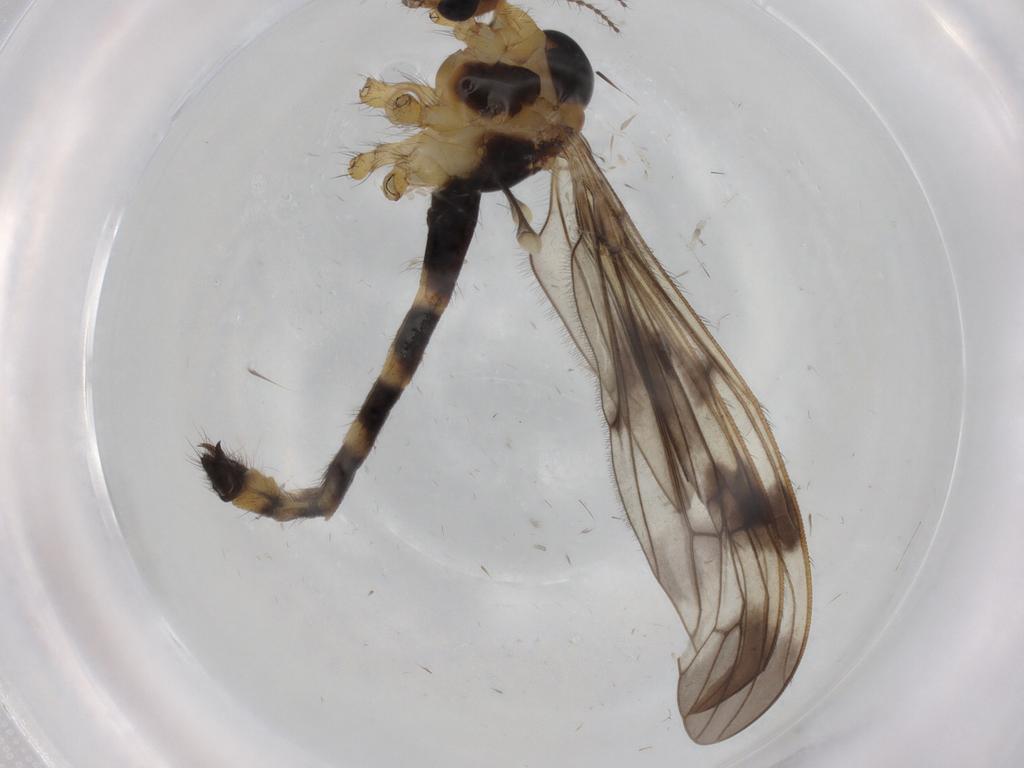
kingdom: Animalia
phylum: Arthropoda
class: Insecta
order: Diptera
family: Limoniidae
